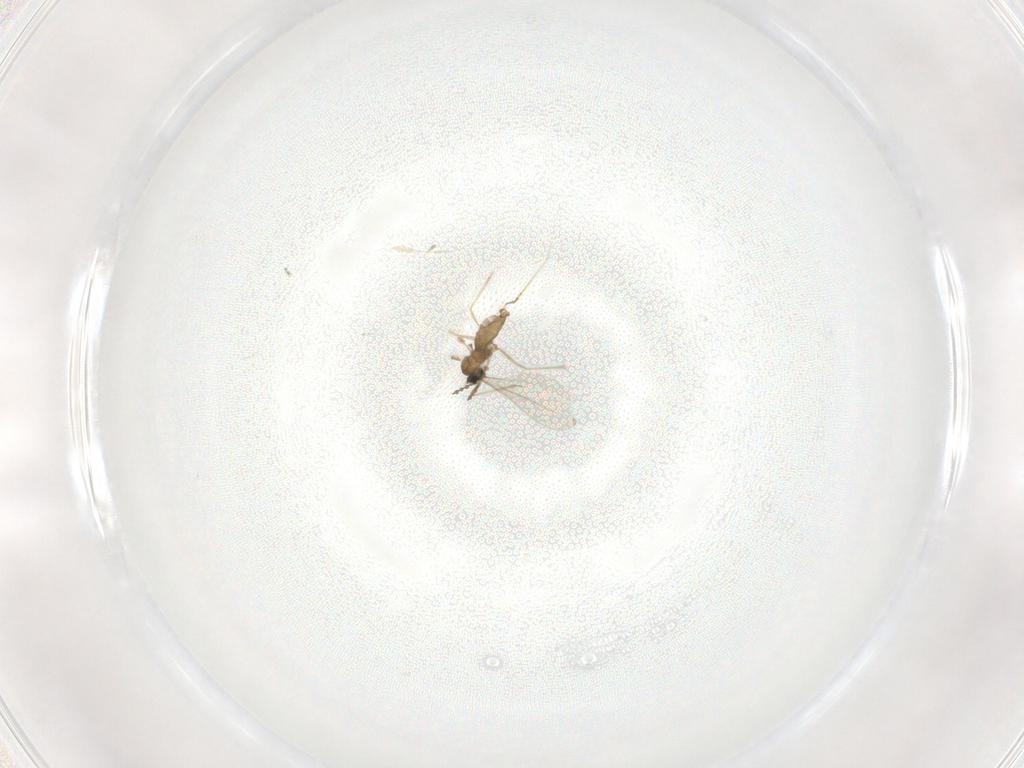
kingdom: Animalia
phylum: Arthropoda
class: Insecta
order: Diptera
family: Cecidomyiidae
